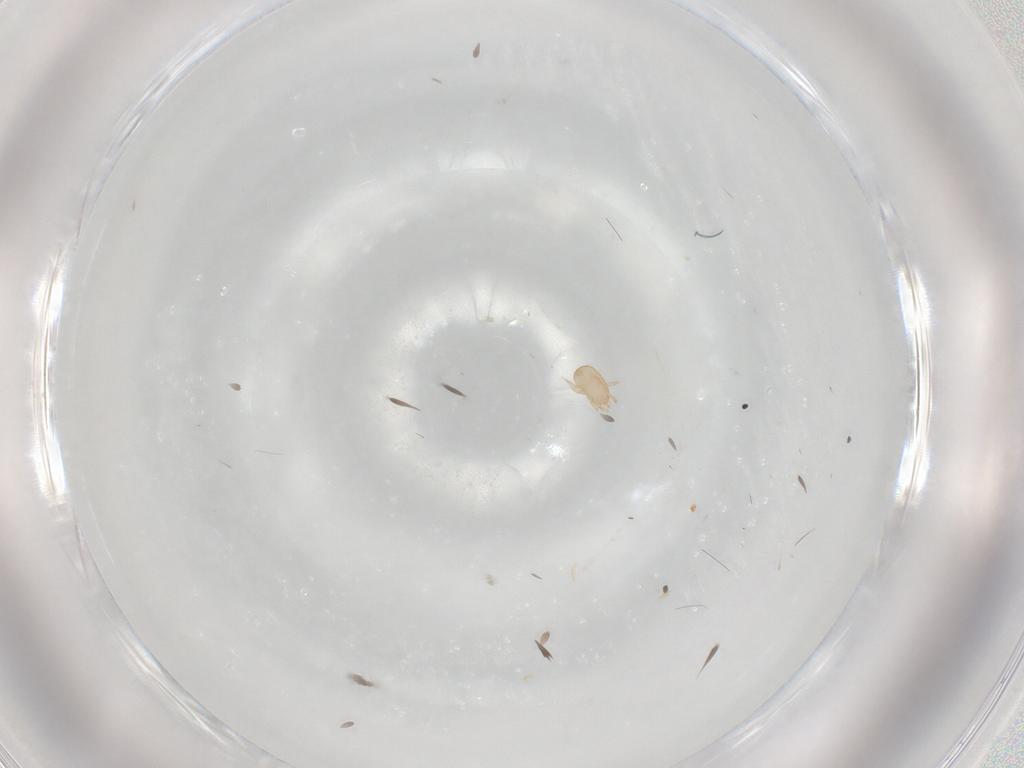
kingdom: Animalia
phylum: Arthropoda
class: Arachnida
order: Mesostigmata
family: Ascidae
